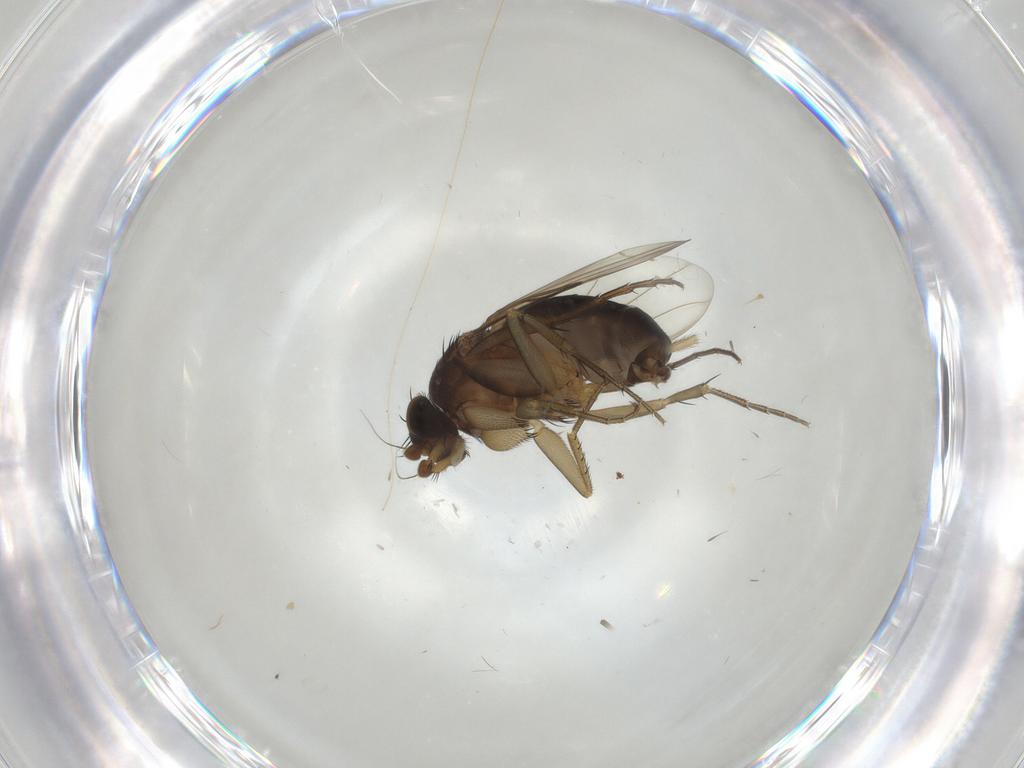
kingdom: Animalia
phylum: Arthropoda
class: Insecta
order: Diptera
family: Phoridae
